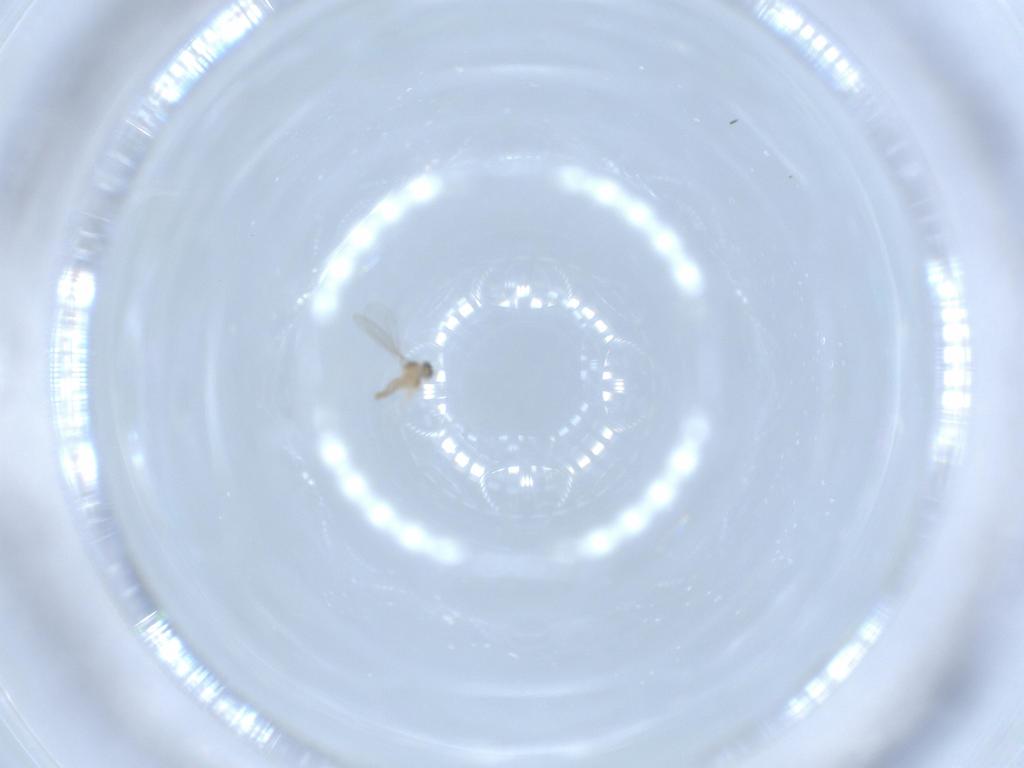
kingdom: Animalia
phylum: Arthropoda
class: Insecta
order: Diptera
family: Cecidomyiidae
